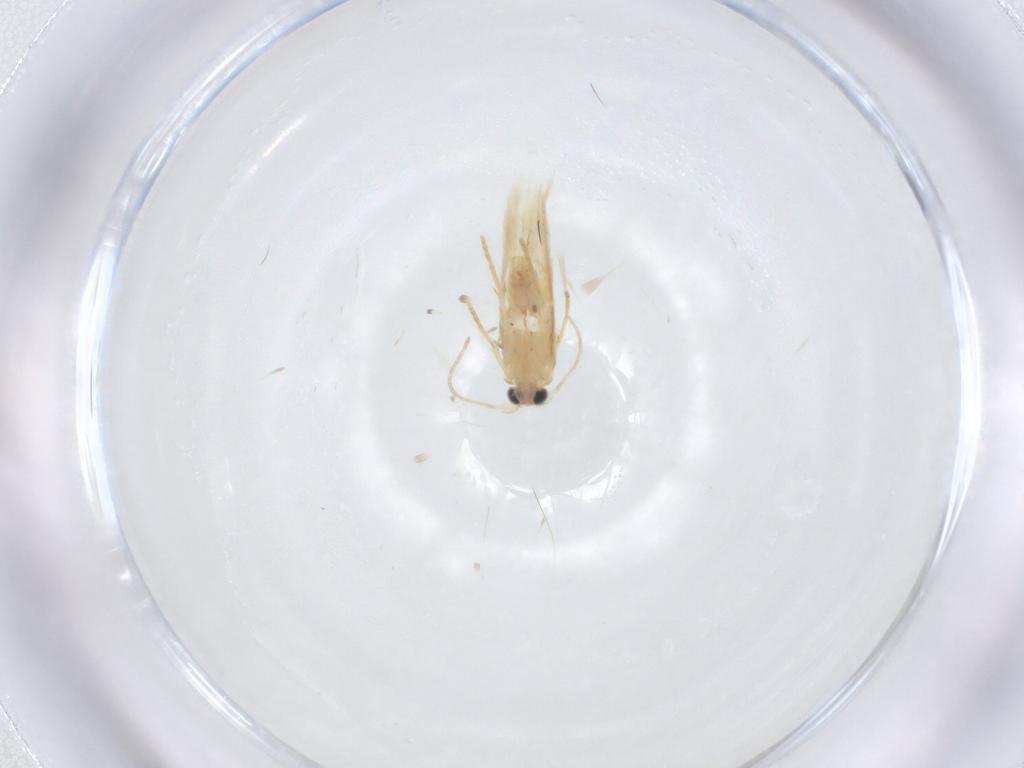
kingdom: Animalia
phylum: Arthropoda
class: Insecta
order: Lepidoptera
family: Nepticulidae
